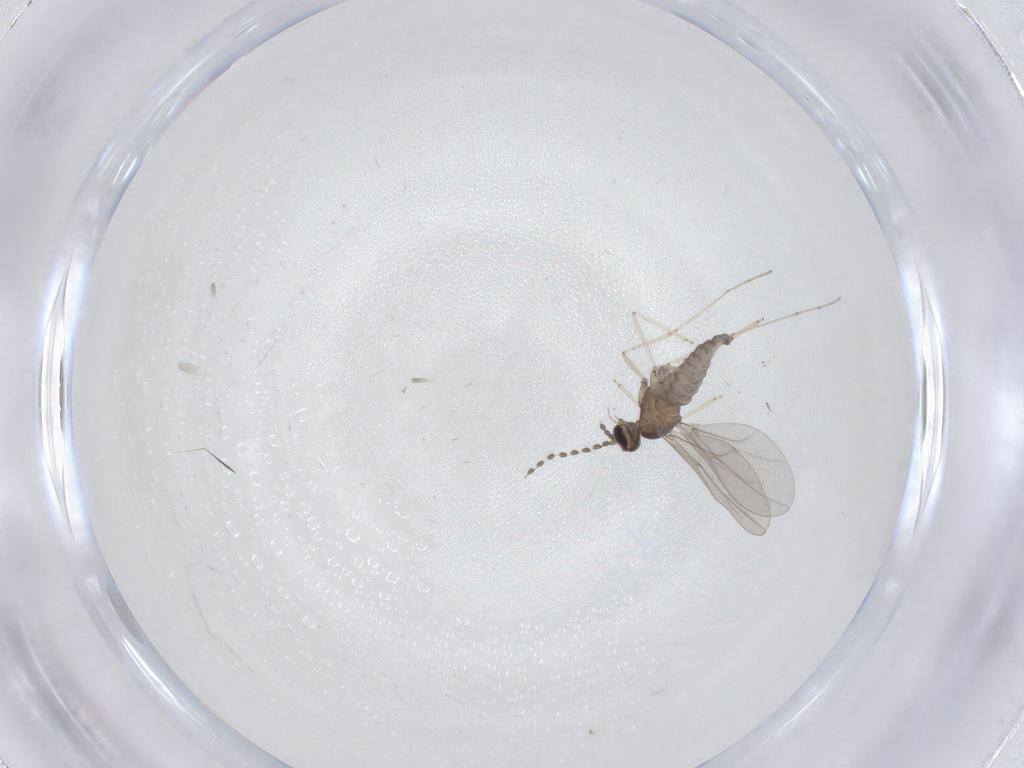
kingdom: Animalia
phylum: Arthropoda
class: Insecta
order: Diptera
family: Cecidomyiidae
